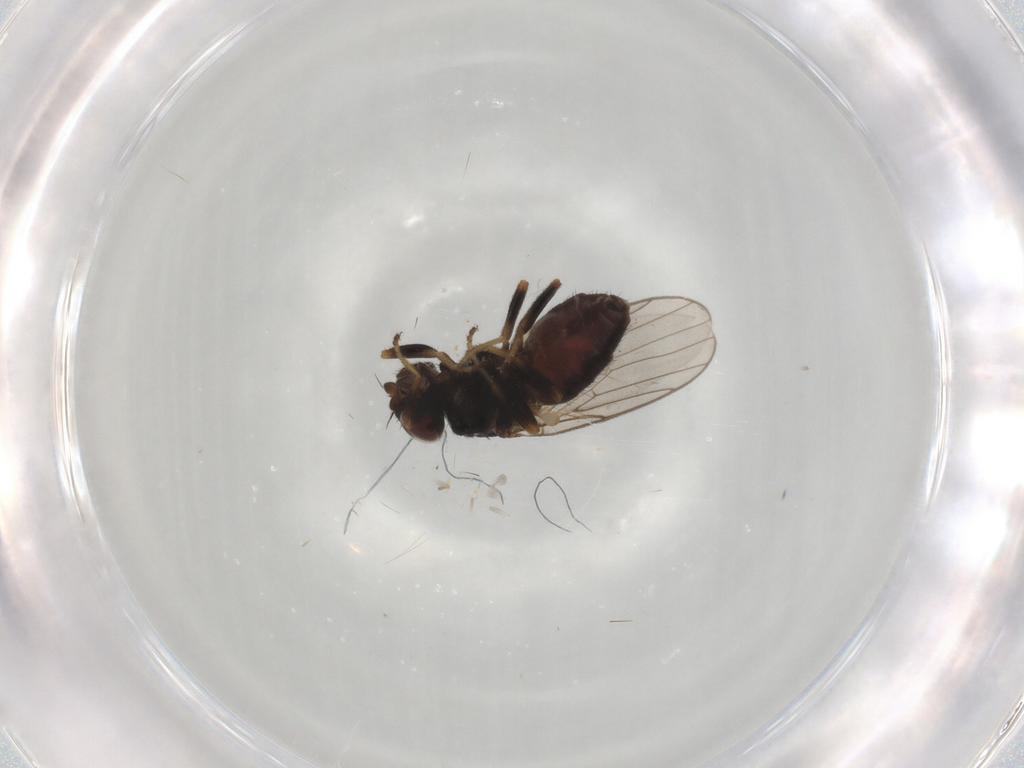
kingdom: Animalia
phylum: Arthropoda
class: Insecta
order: Diptera
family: Chloropidae
